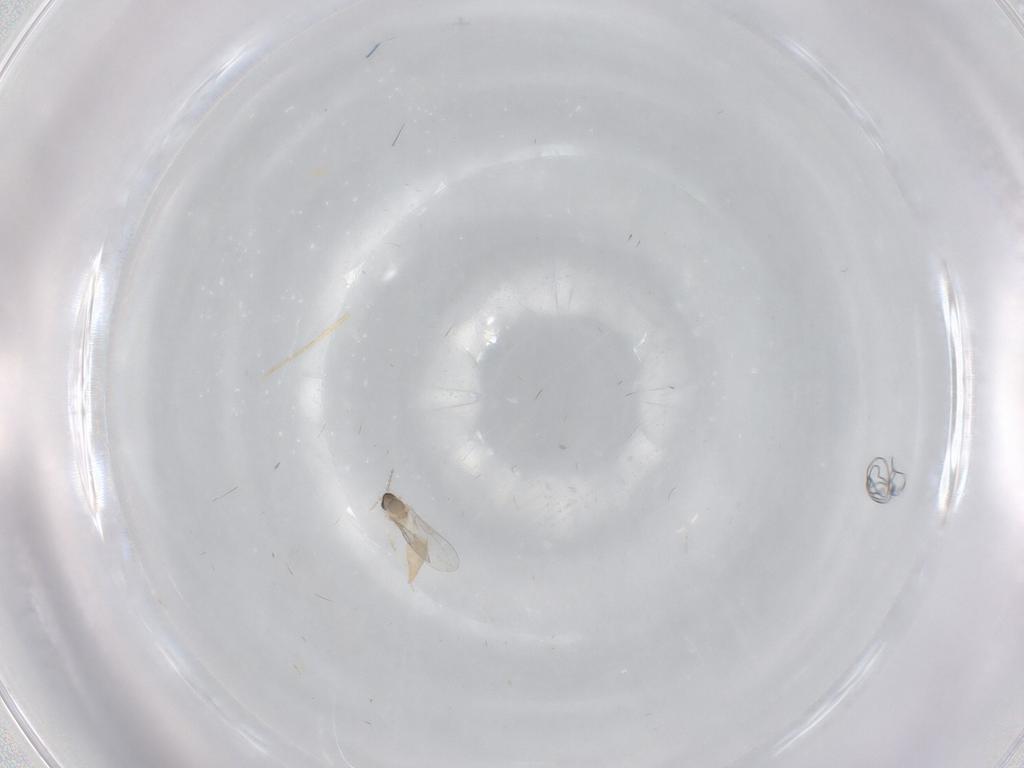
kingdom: Animalia
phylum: Arthropoda
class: Insecta
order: Diptera
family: Cecidomyiidae
